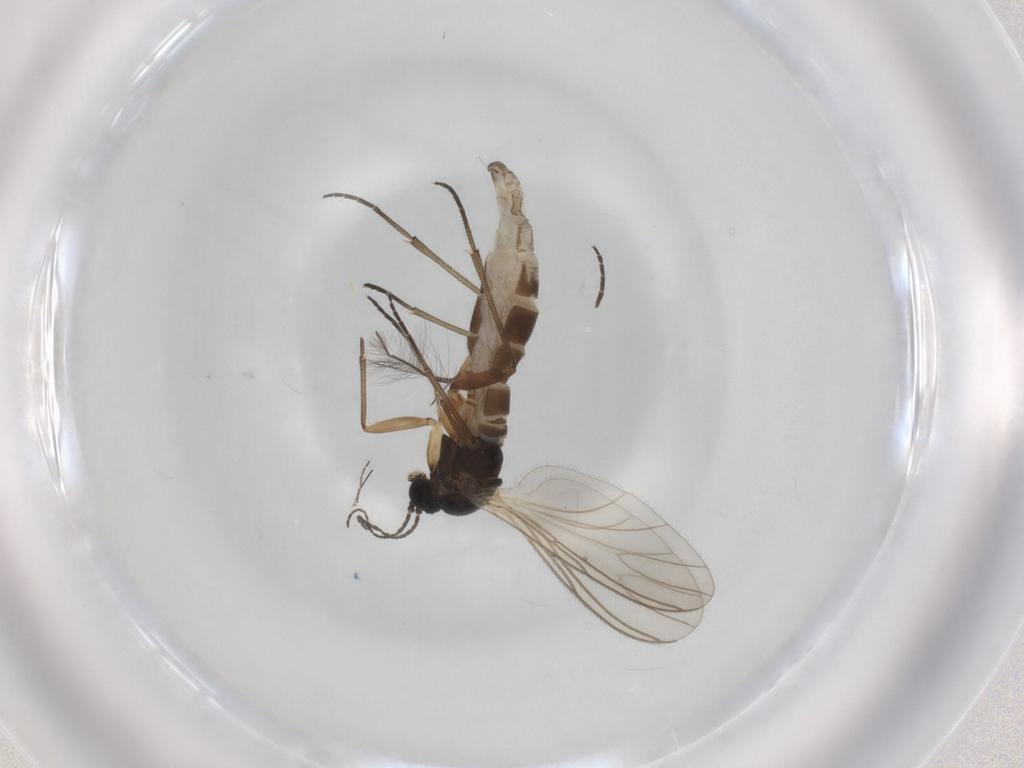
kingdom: Animalia
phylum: Arthropoda
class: Insecta
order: Diptera
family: Sciaridae
